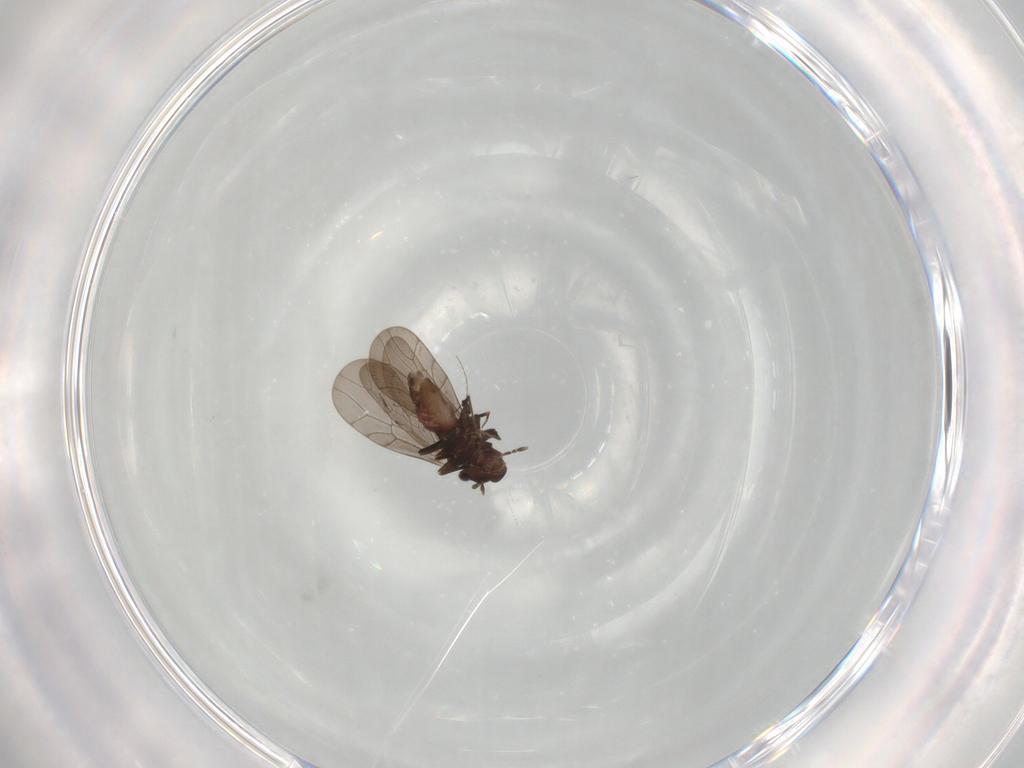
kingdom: Animalia
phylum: Arthropoda
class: Insecta
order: Psocodea
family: Lepidopsocidae
